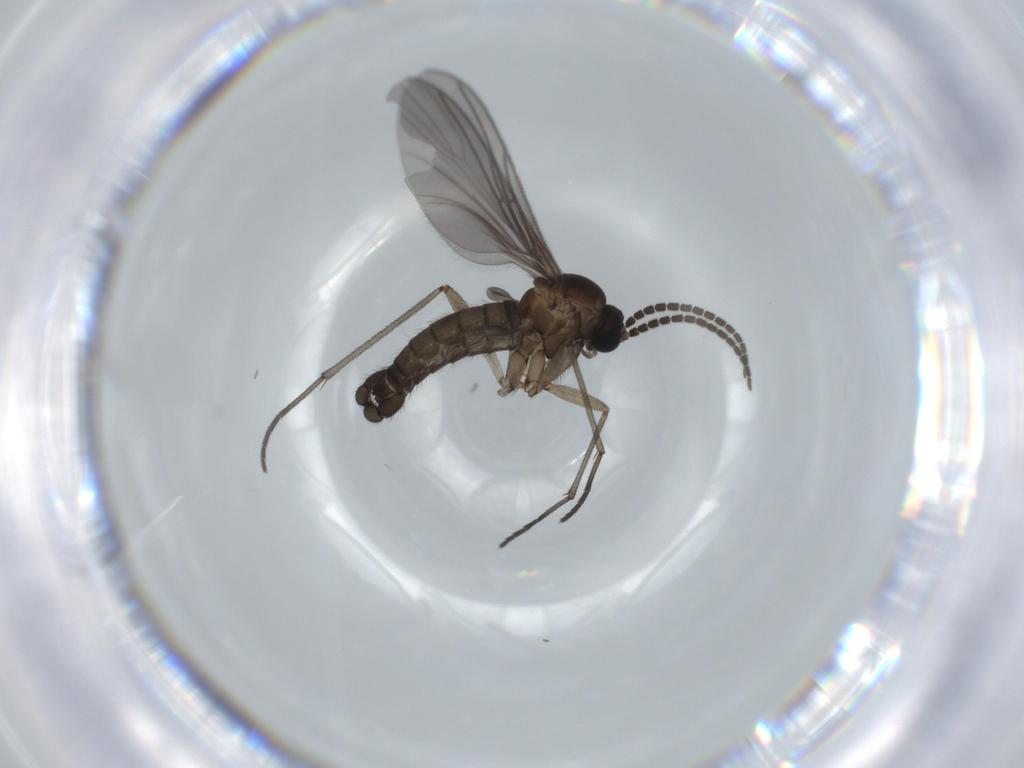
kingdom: Animalia
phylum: Arthropoda
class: Insecta
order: Diptera
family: Sciaridae
